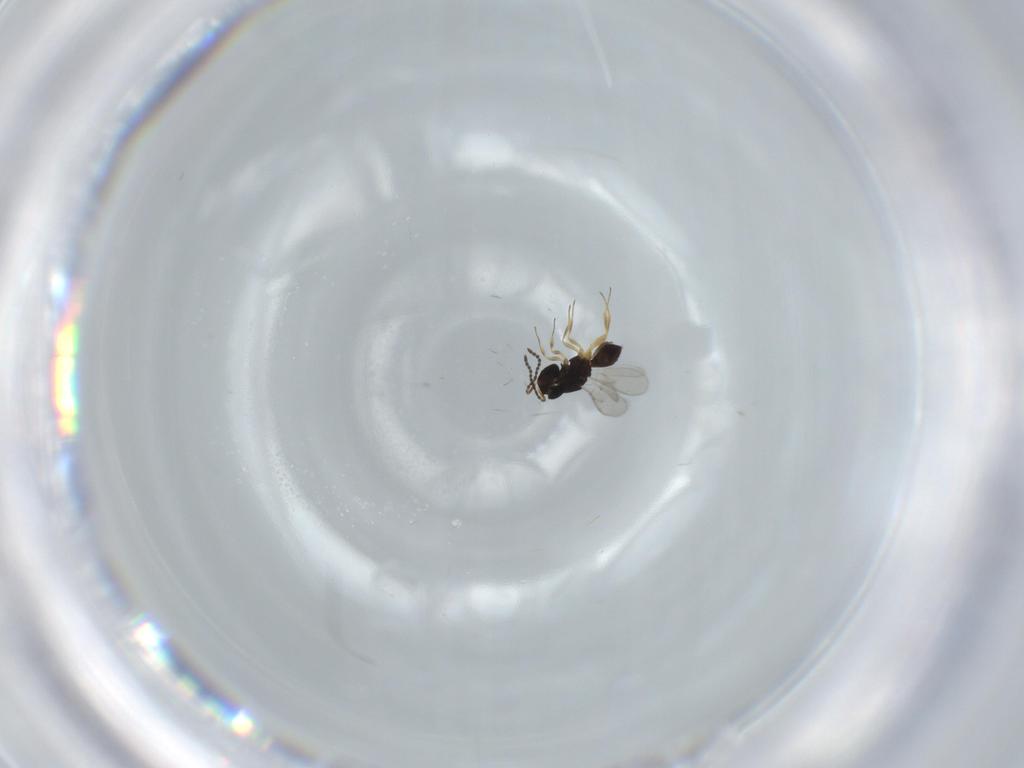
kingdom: Animalia
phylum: Arthropoda
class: Insecta
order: Hymenoptera
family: Scelionidae
